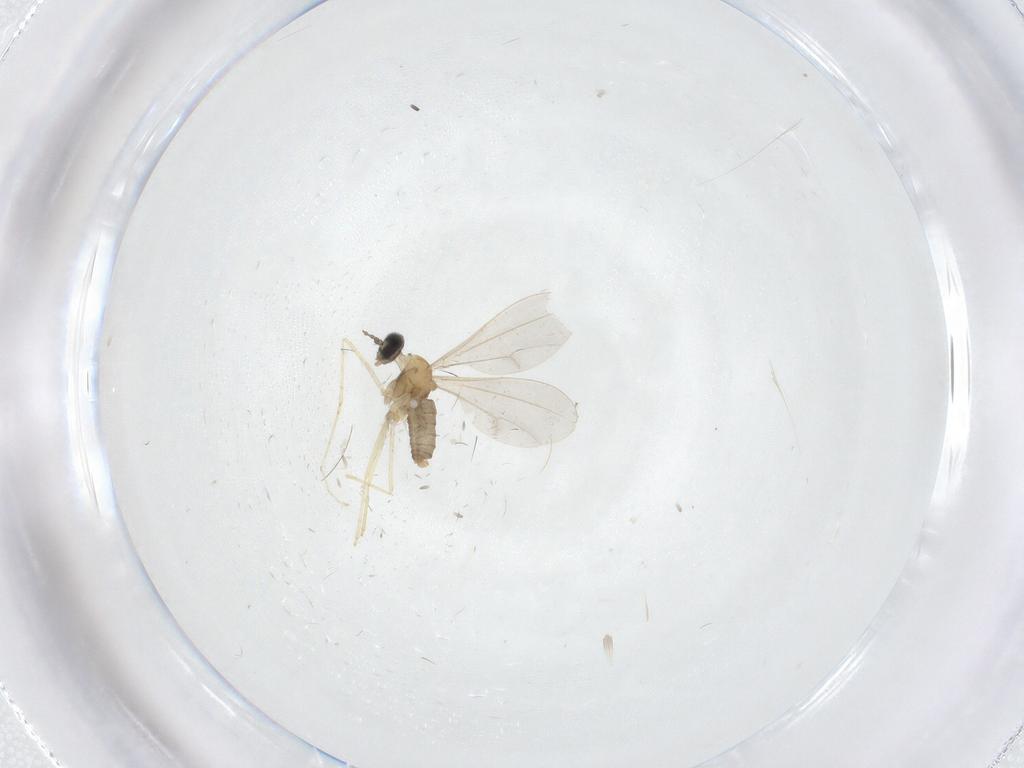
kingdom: Animalia
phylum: Arthropoda
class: Insecta
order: Diptera
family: Cecidomyiidae
